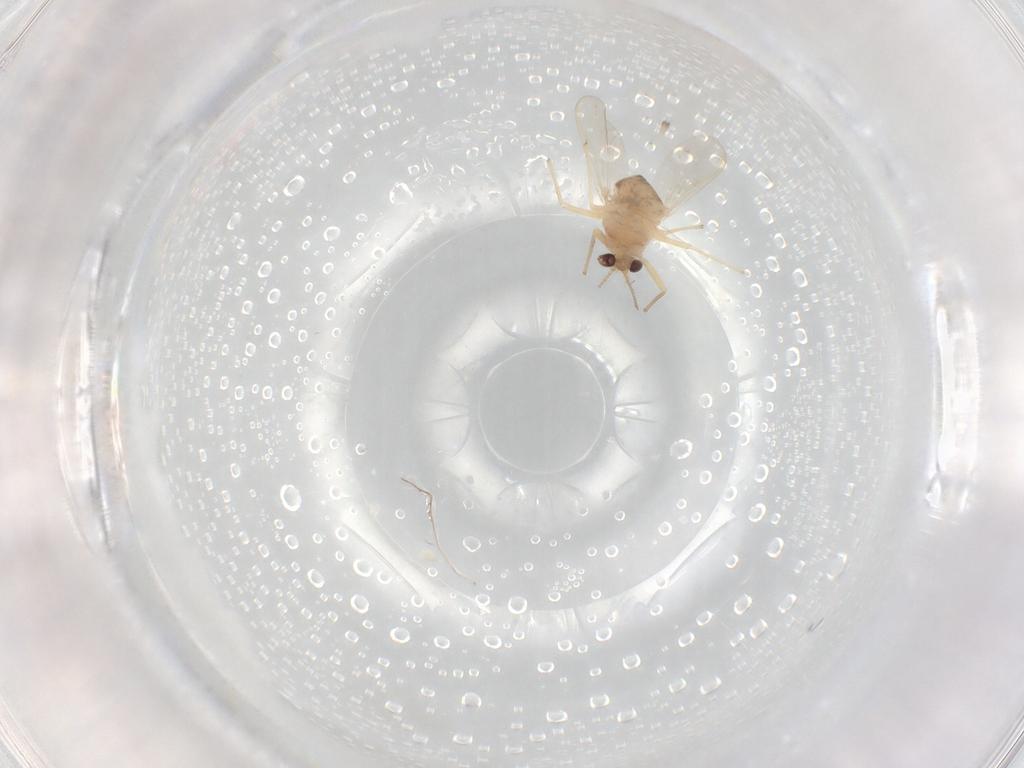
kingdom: Animalia
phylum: Arthropoda
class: Insecta
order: Diptera
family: Chironomidae
